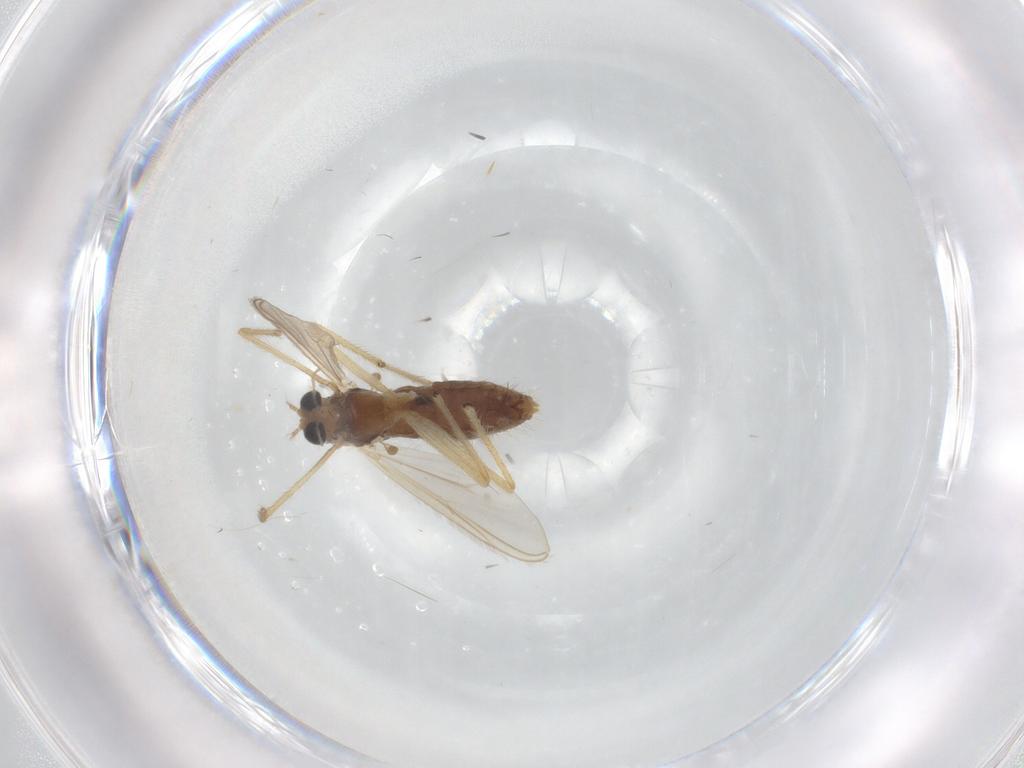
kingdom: Animalia
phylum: Arthropoda
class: Insecta
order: Diptera
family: Chironomidae
